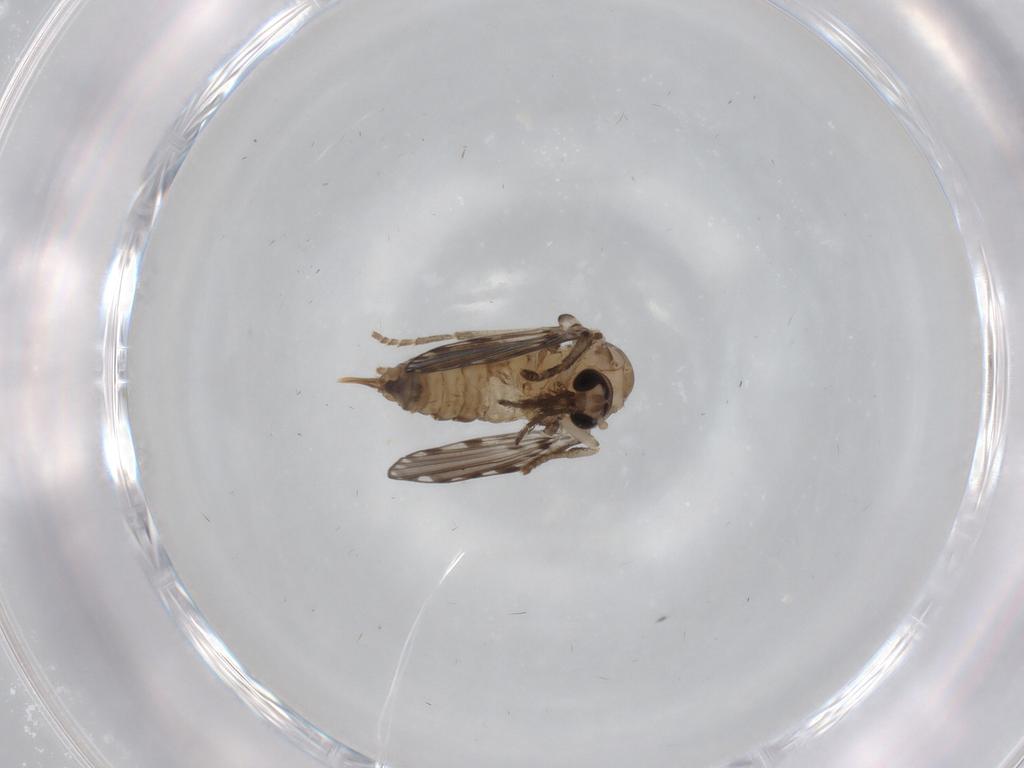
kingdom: Animalia
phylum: Arthropoda
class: Insecta
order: Diptera
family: Psychodidae
